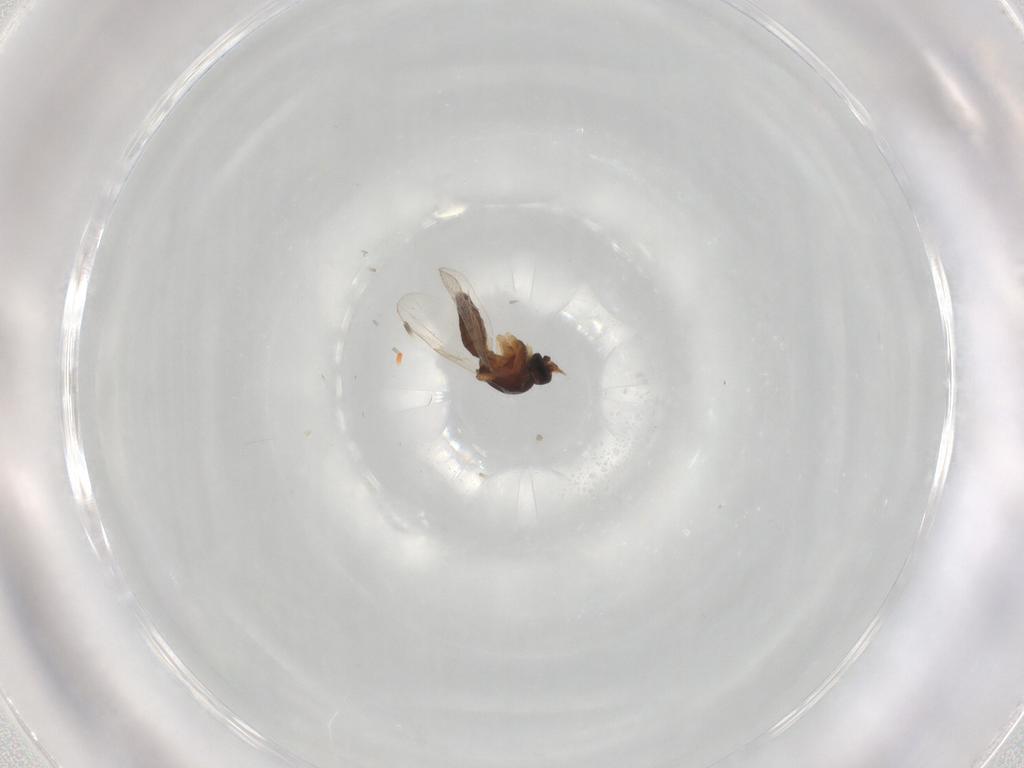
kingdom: Animalia
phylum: Arthropoda
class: Insecta
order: Diptera
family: Ceratopogonidae
